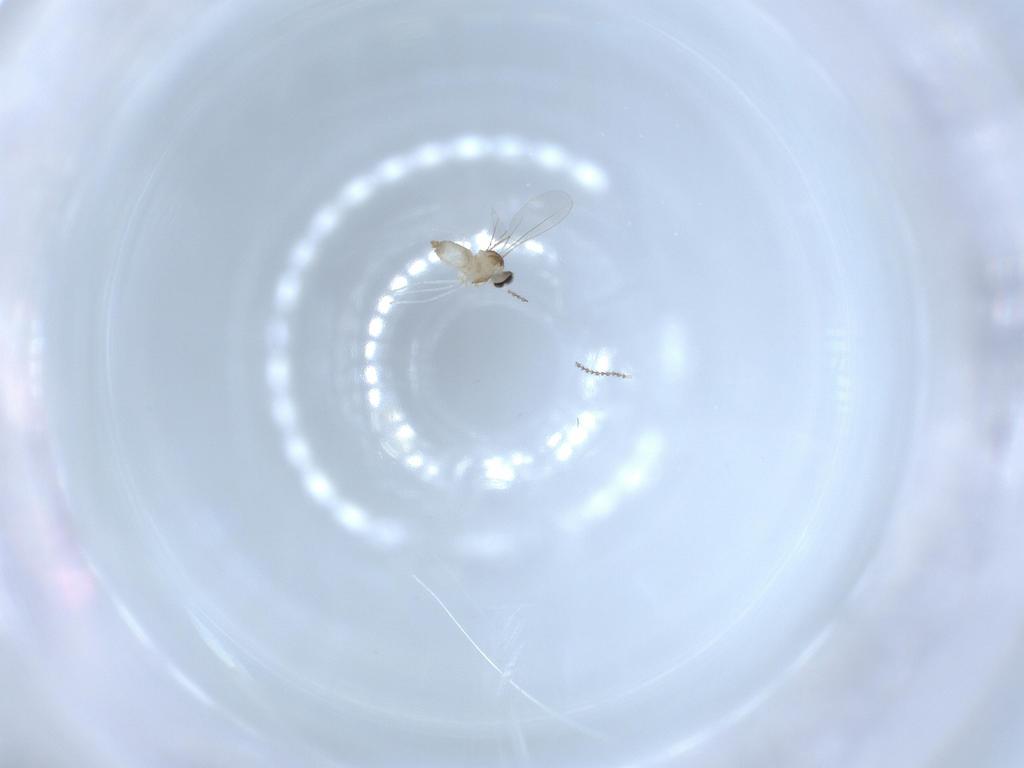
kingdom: Animalia
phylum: Arthropoda
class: Insecta
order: Diptera
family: Cecidomyiidae
